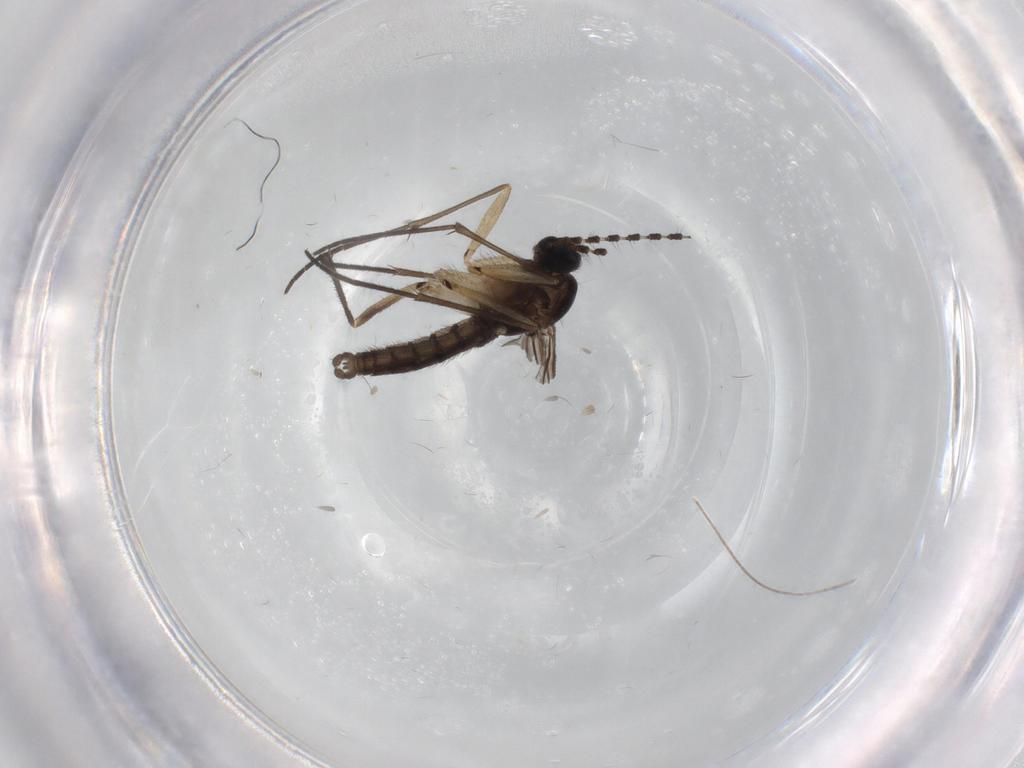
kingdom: Animalia
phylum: Arthropoda
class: Insecta
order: Diptera
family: Sciaridae
